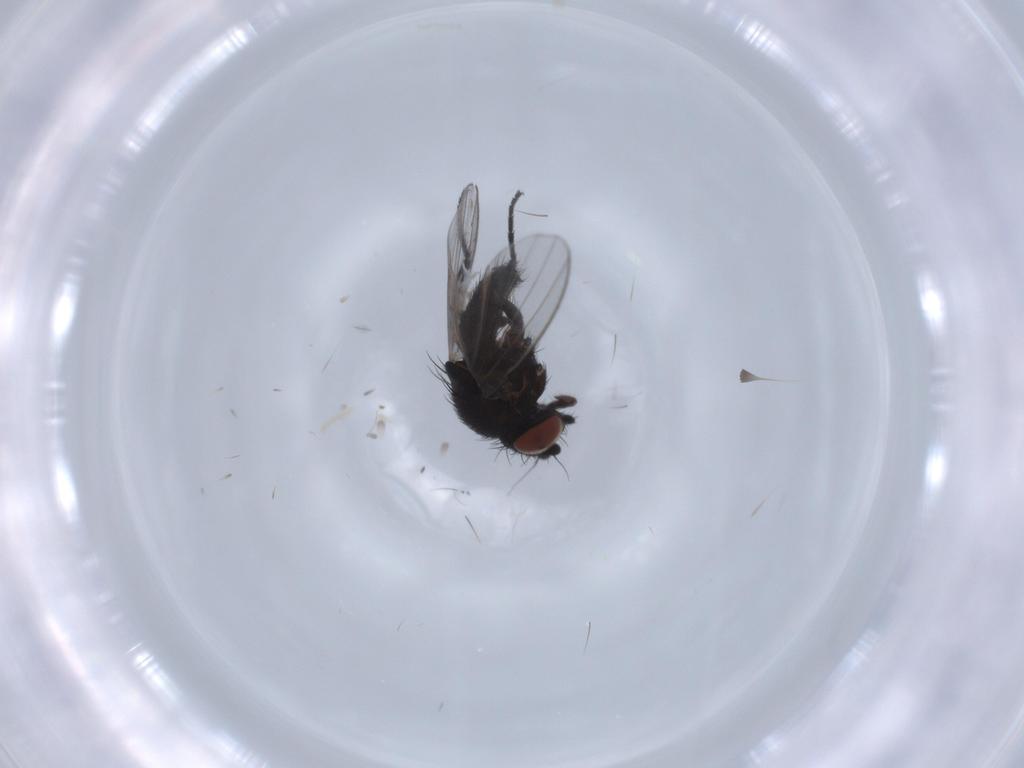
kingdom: Animalia
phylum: Arthropoda
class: Insecta
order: Diptera
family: Milichiidae
